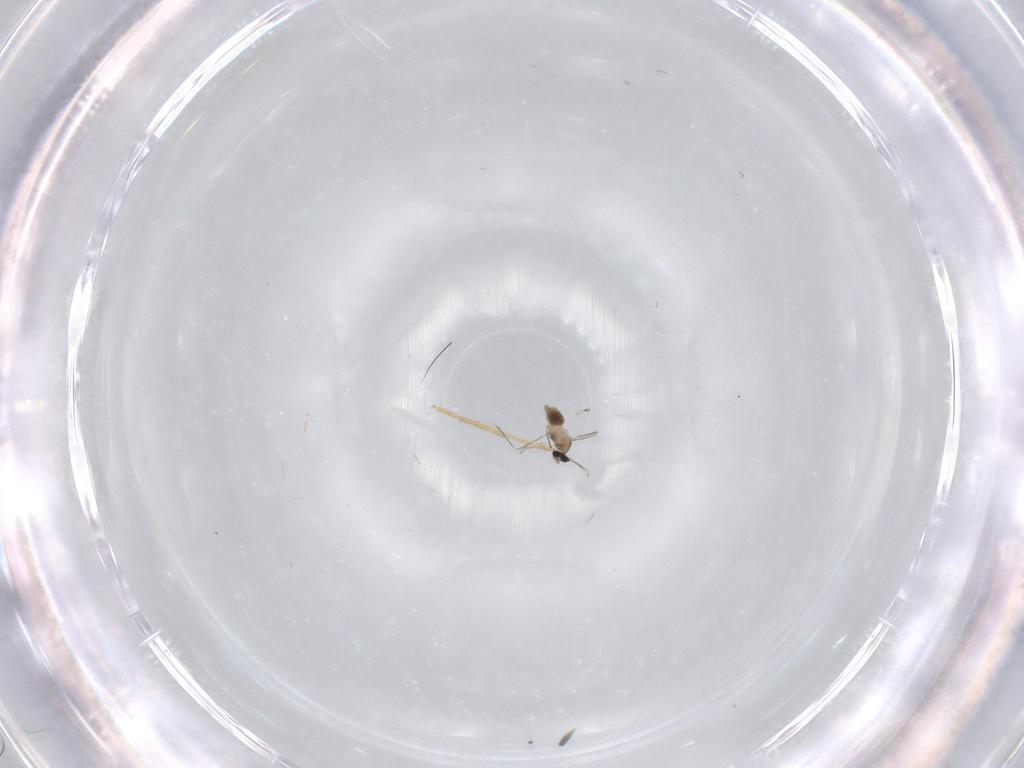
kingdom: Animalia
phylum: Arthropoda
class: Insecta
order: Diptera
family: Cecidomyiidae
